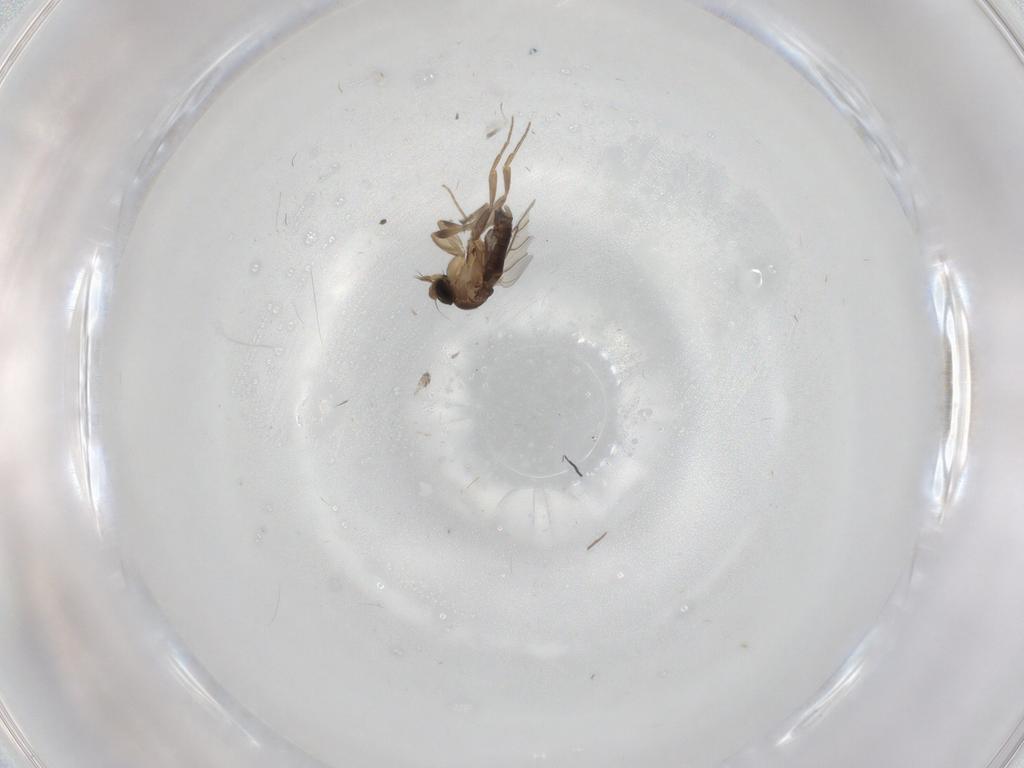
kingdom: Animalia
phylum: Arthropoda
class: Insecta
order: Diptera
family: Phoridae
